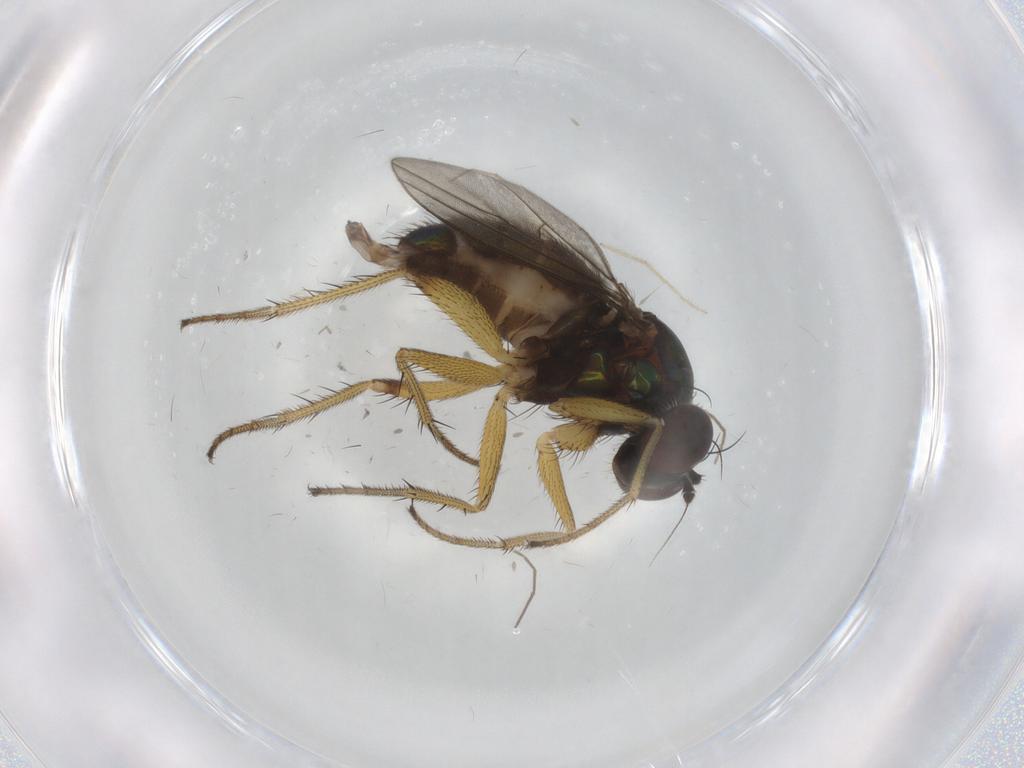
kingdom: Animalia
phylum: Arthropoda
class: Insecta
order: Diptera
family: Dolichopodidae
